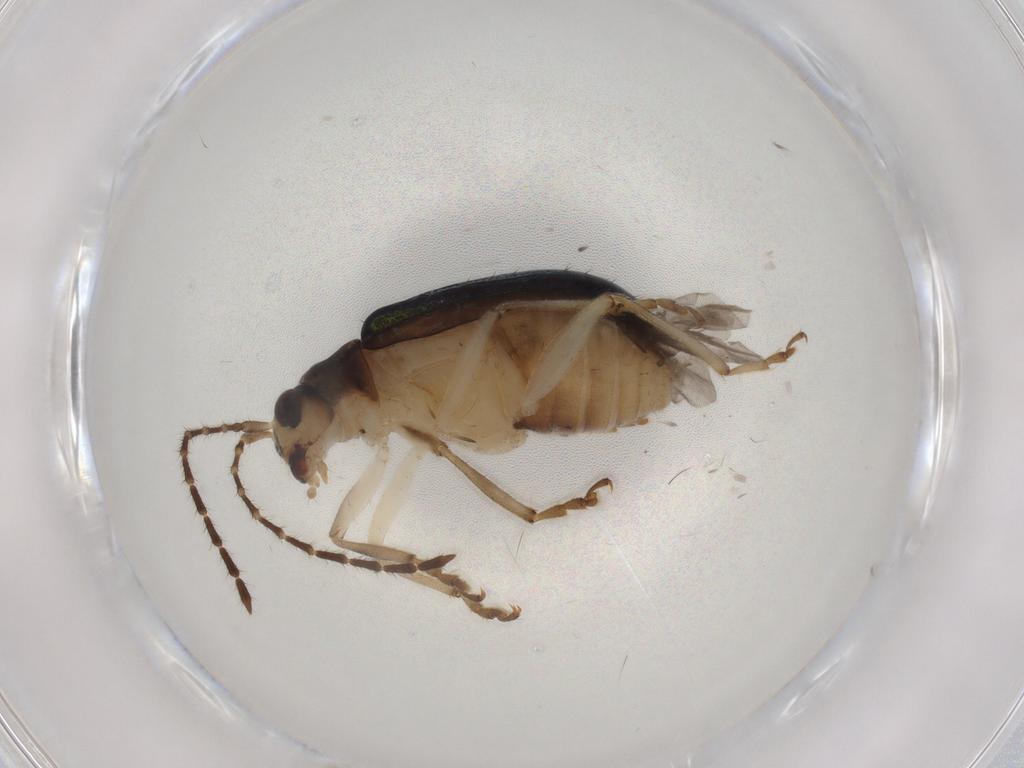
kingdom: Animalia
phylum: Arthropoda
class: Insecta
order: Coleoptera
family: Chrysomelidae
